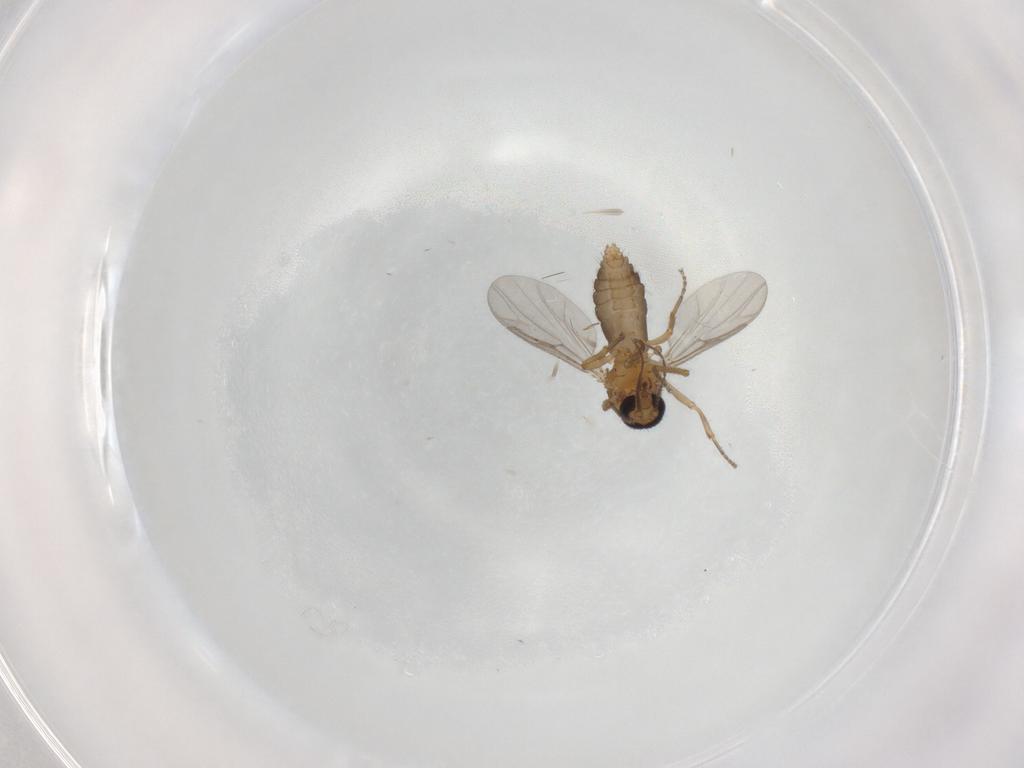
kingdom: Animalia
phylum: Arthropoda
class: Insecta
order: Diptera
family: Ceratopogonidae
